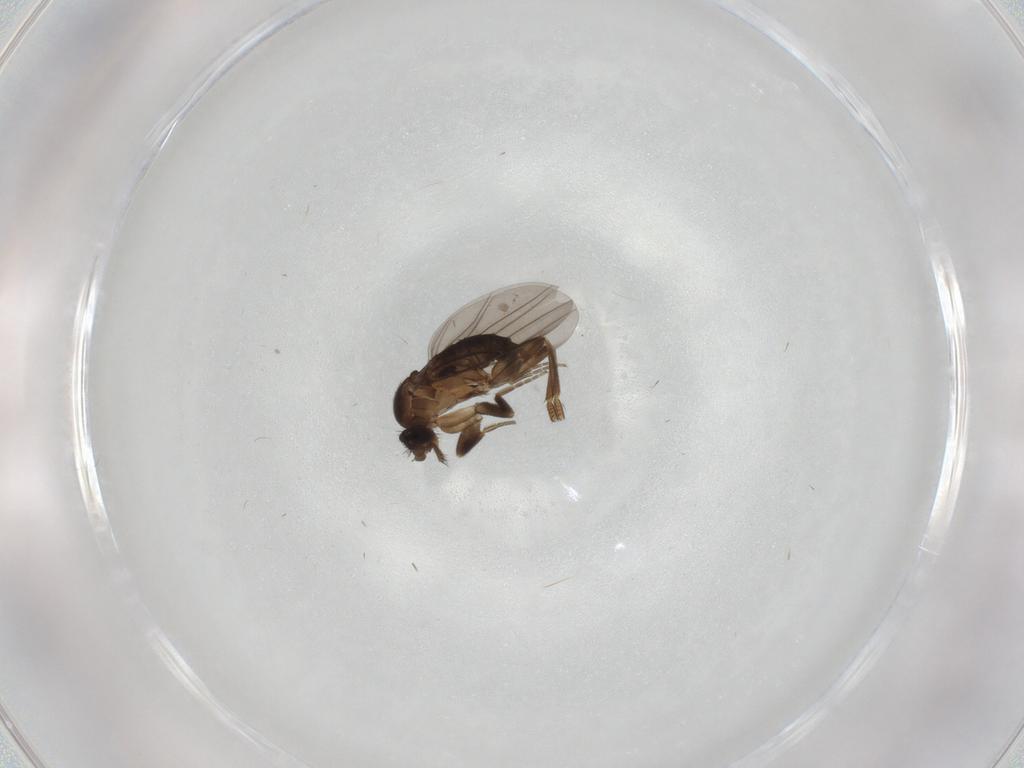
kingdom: Animalia
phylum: Arthropoda
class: Insecta
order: Diptera
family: Phoridae
